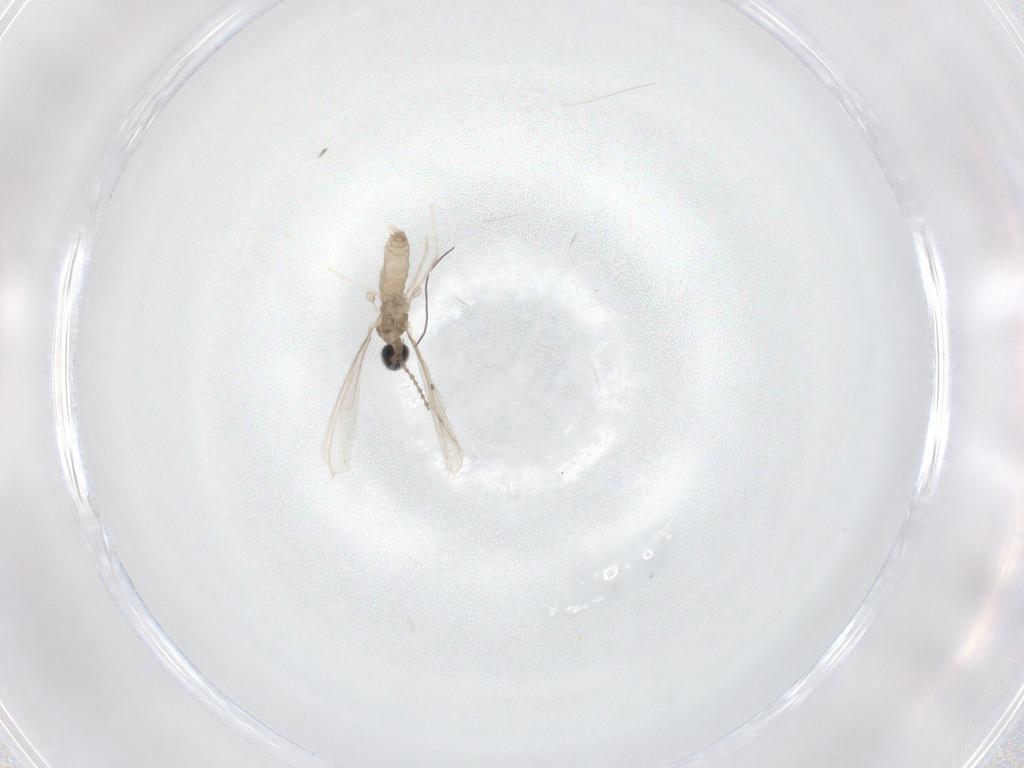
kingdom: Animalia
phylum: Arthropoda
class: Insecta
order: Diptera
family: Cecidomyiidae
